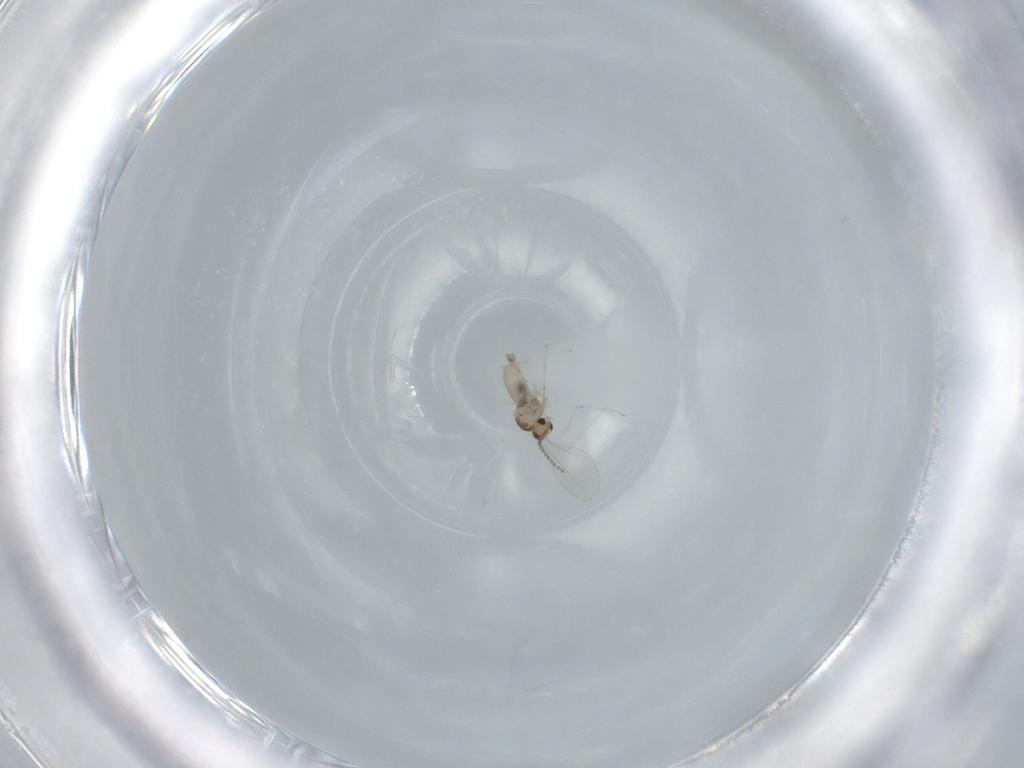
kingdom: Animalia
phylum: Arthropoda
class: Insecta
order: Diptera
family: Cecidomyiidae
